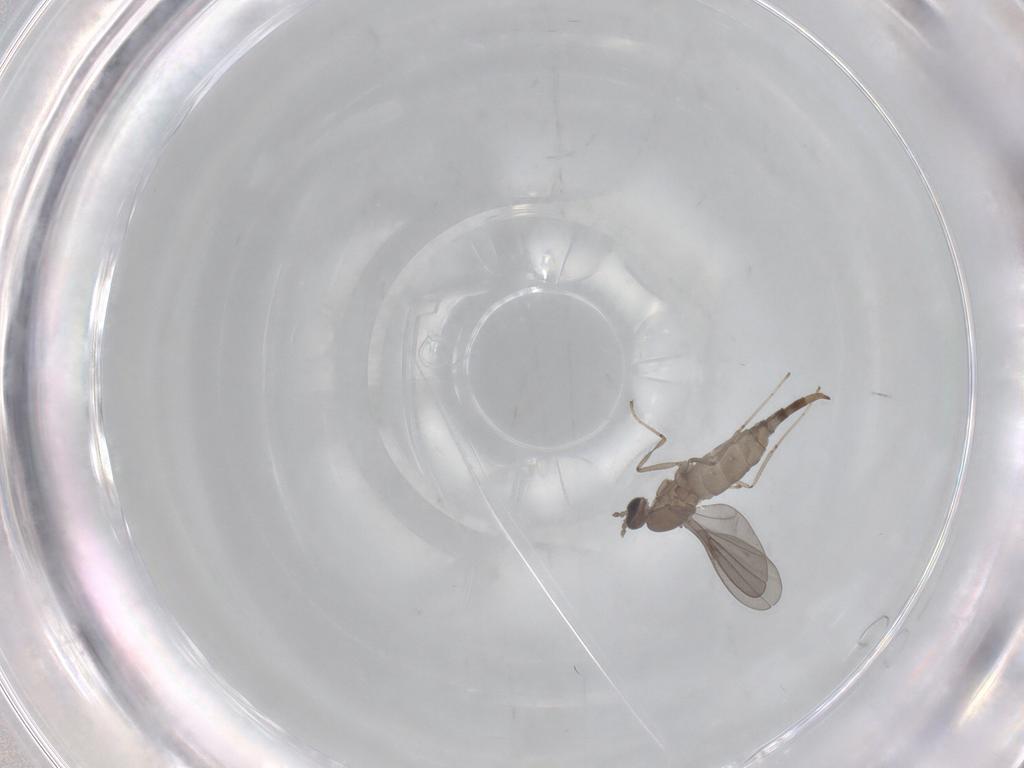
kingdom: Animalia
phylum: Arthropoda
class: Insecta
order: Diptera
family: Cecidomyiidae
